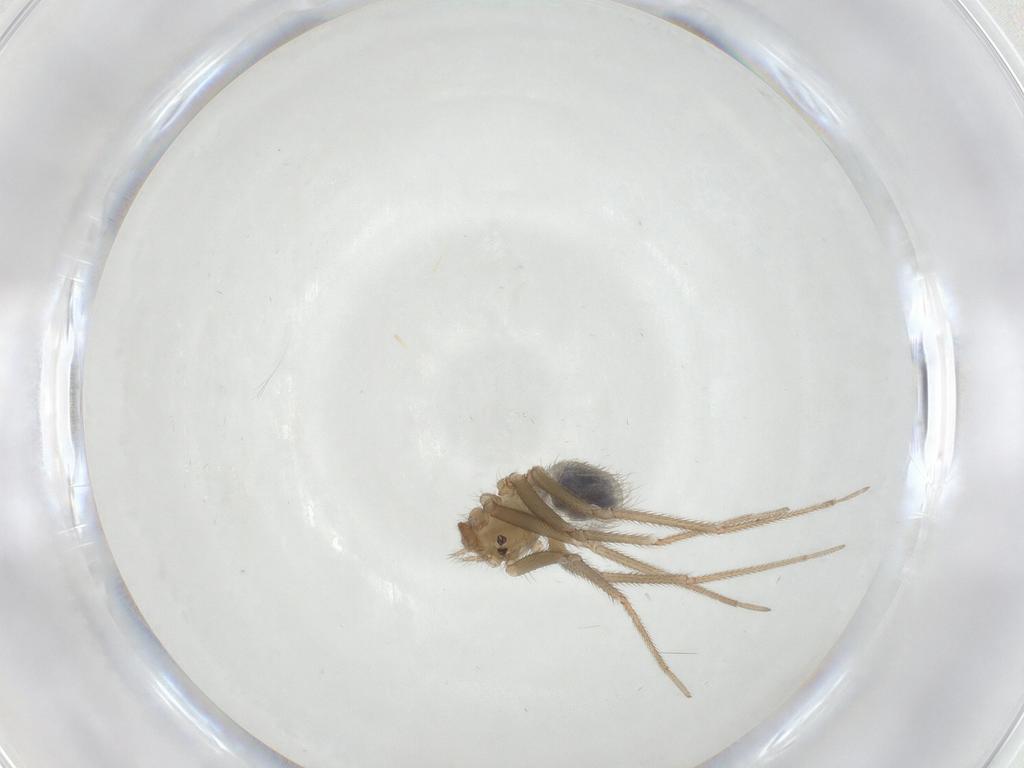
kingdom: Animalia
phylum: Arthropoda
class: Arachnida
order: Araneae
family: Pholcidae
